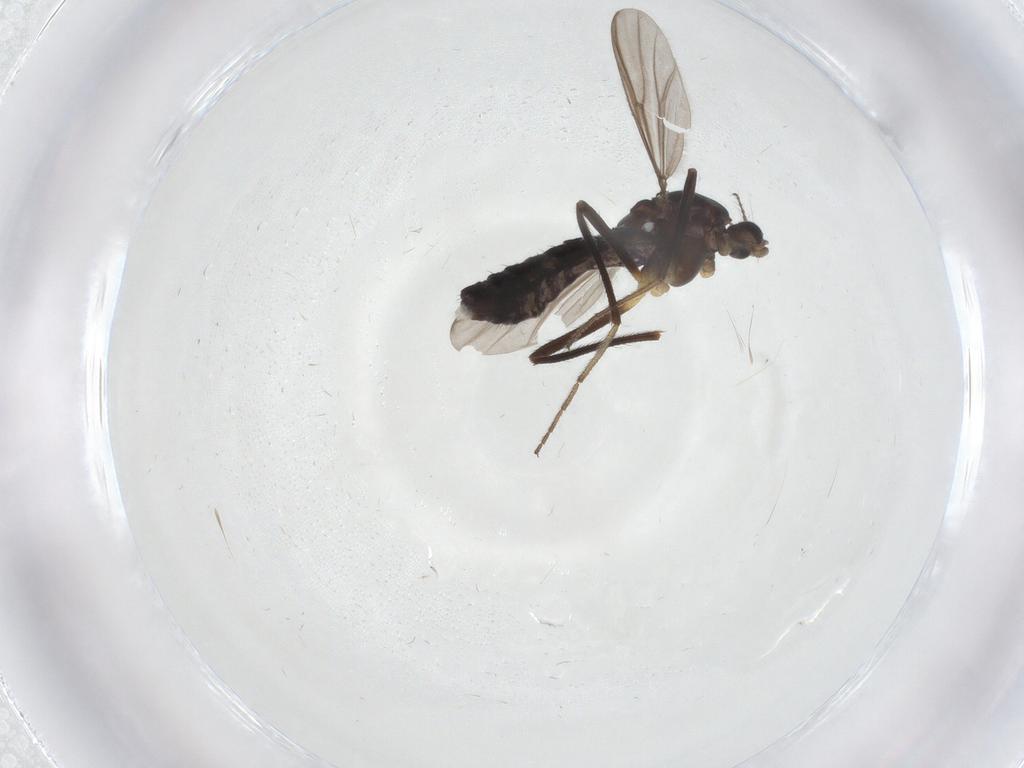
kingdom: Animalia
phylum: Arthropoda
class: Insecta
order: Diptera
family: Chironomidae
